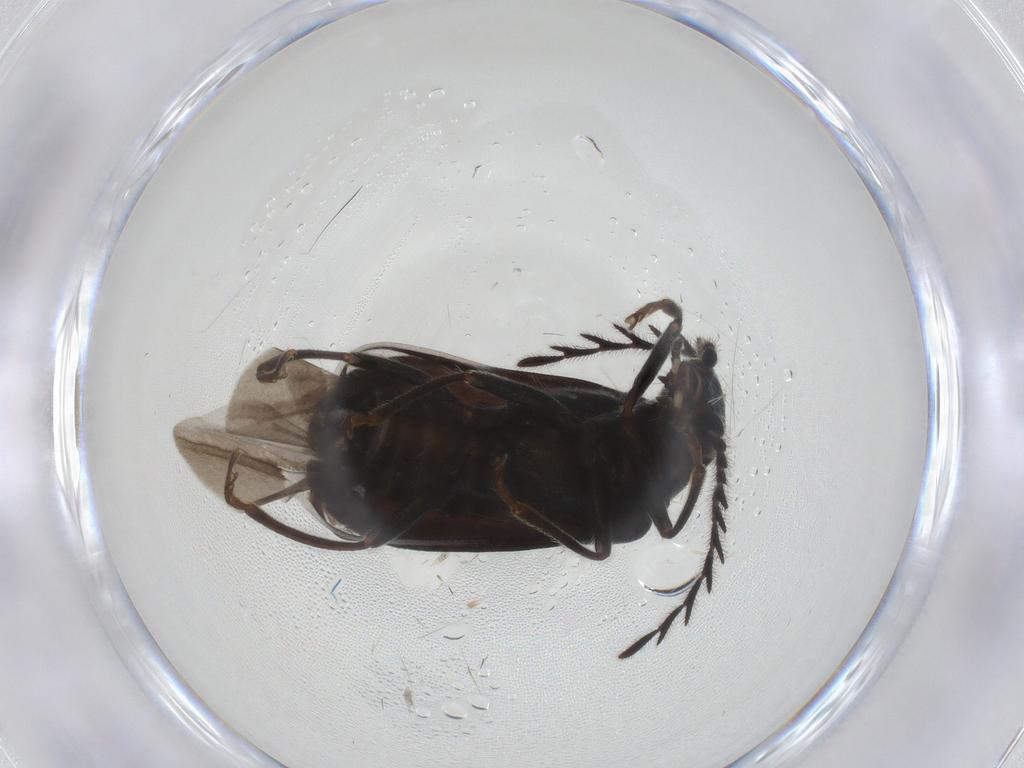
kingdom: Animalia
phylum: Arthropoda
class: Insecta
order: Coleoptera
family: Melyridae
